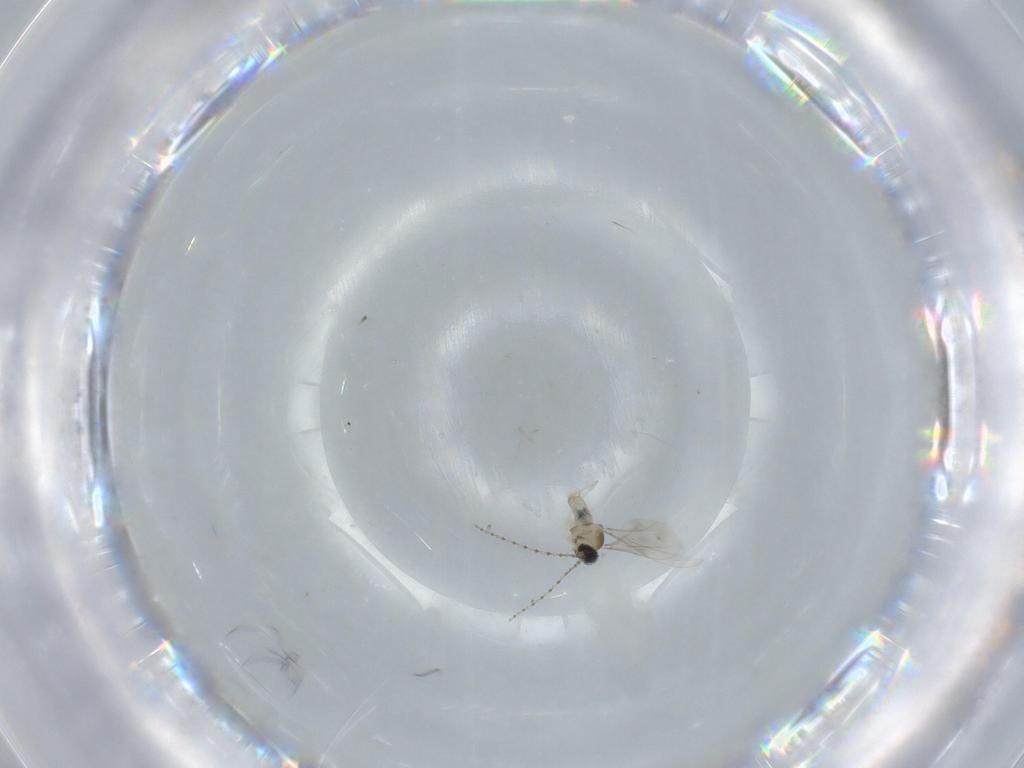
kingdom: Animalia
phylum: Arthropoda
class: Insecta
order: Diptera
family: Cecidomyiidae
